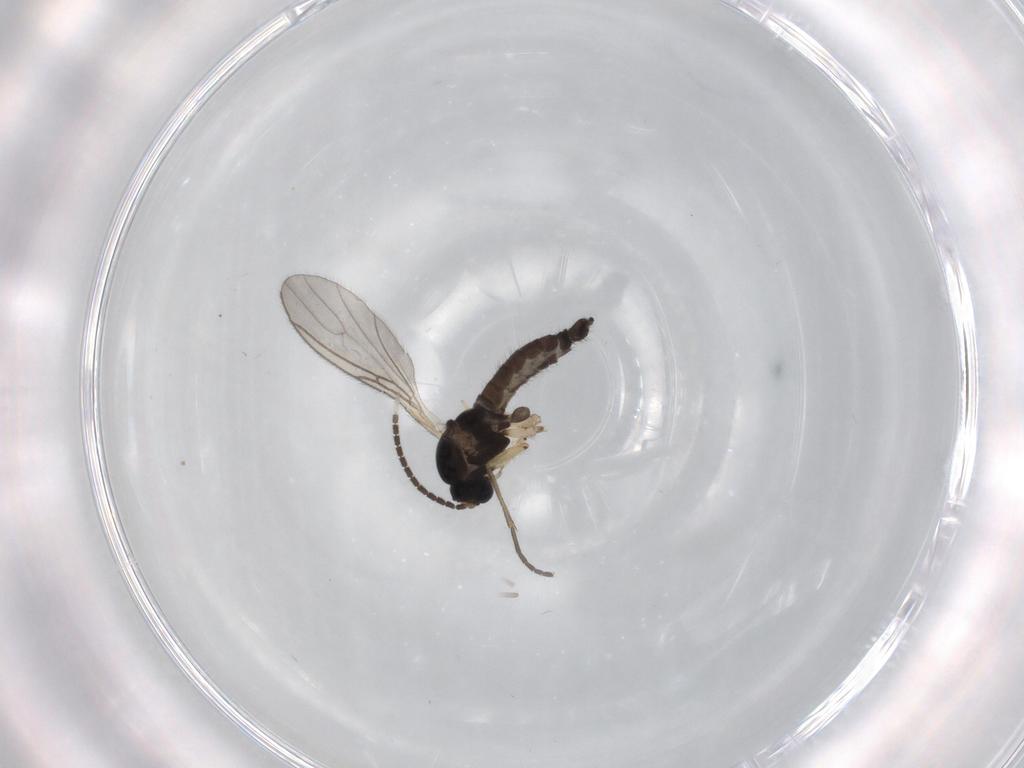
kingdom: Animalia
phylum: Arthropoda
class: Insecta
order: Diptera
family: Sciaridae
